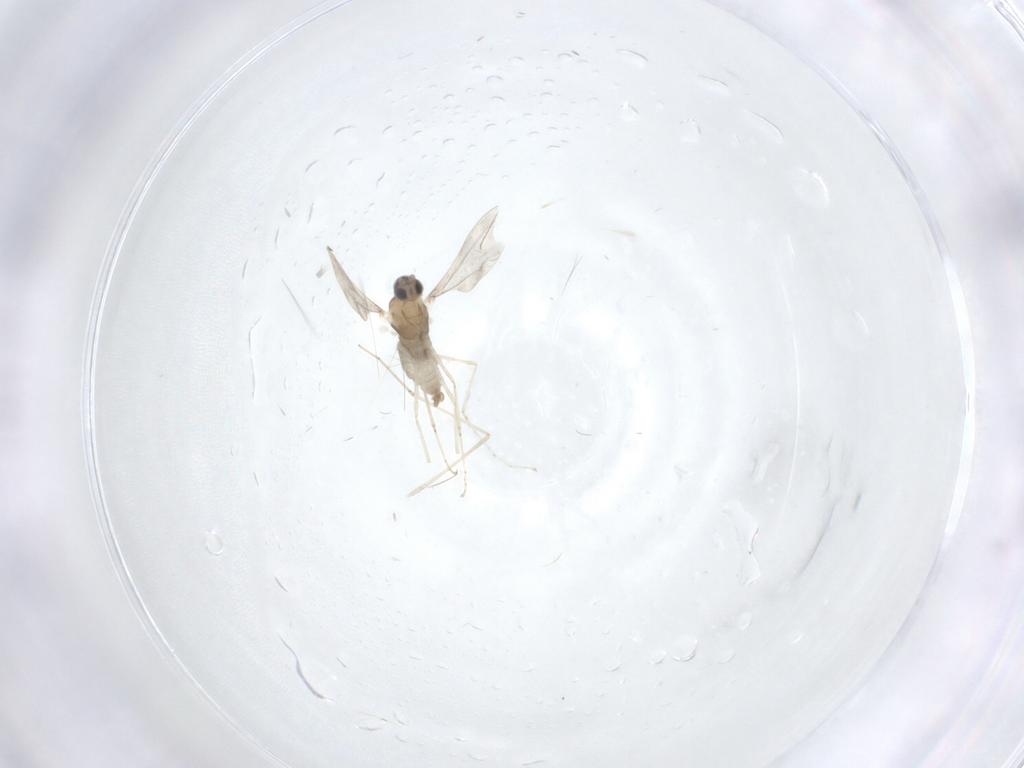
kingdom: Animalia
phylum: Arthropoda
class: Insecta
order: Diptera
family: Cecidomyiidae
